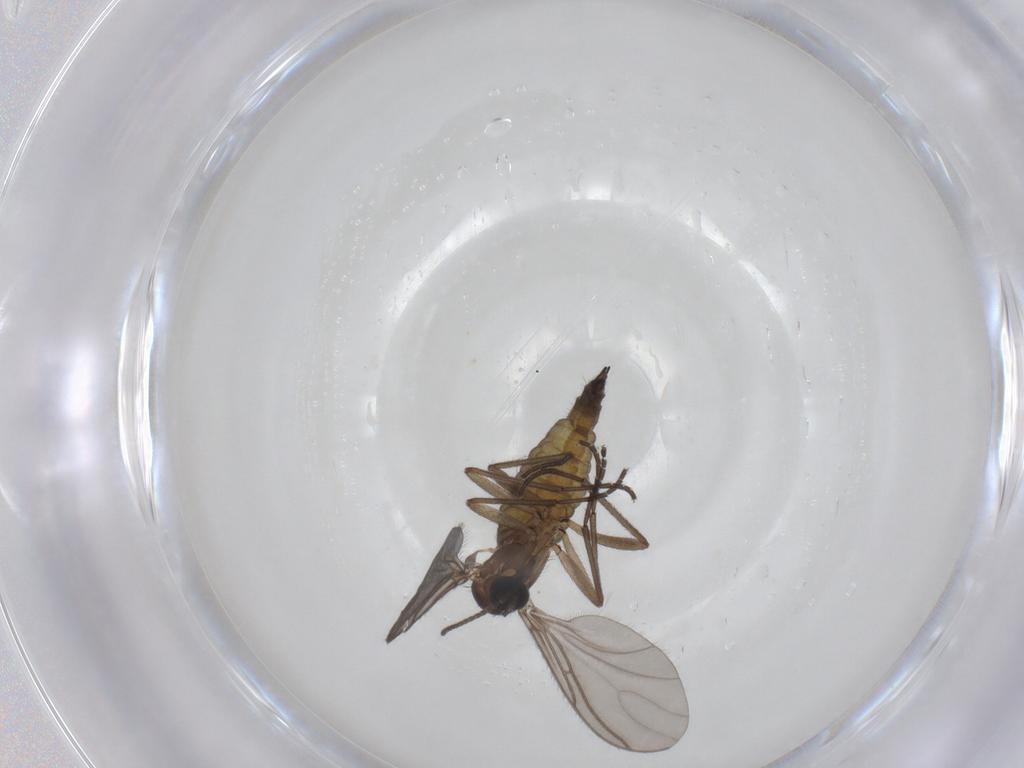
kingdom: Animalia
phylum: Arthropoda
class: Insecta
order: Diptera
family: Sciaridae
